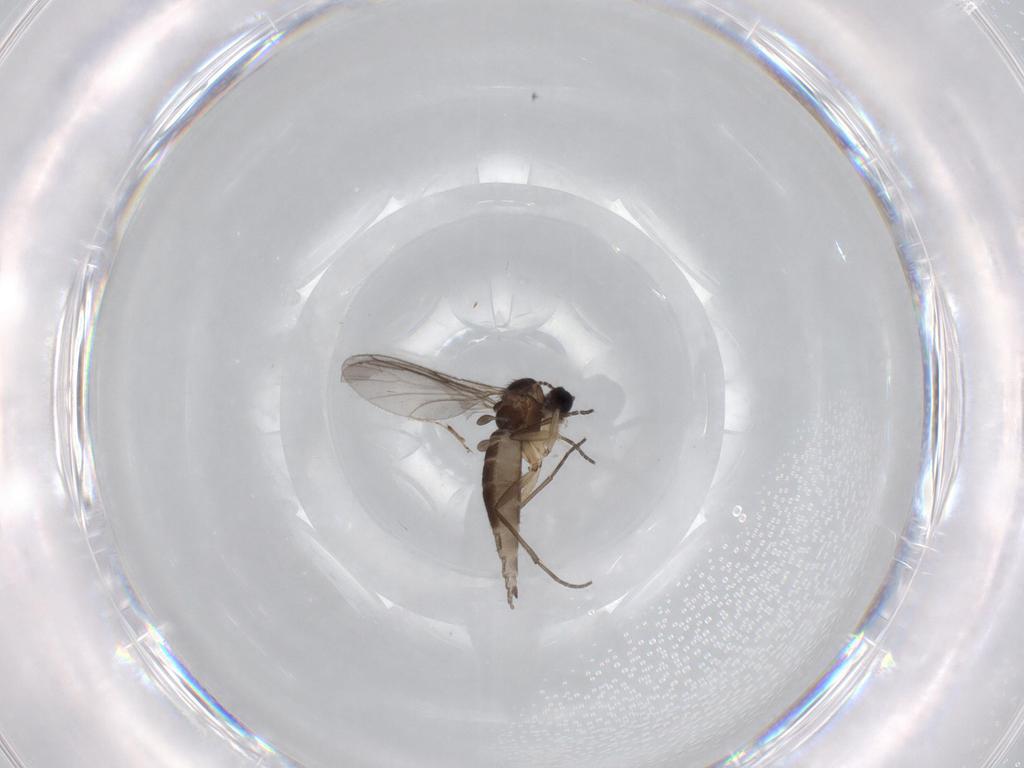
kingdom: Animalia
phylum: Arthropoda
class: Insecta
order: Diptera
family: Sciaridae
